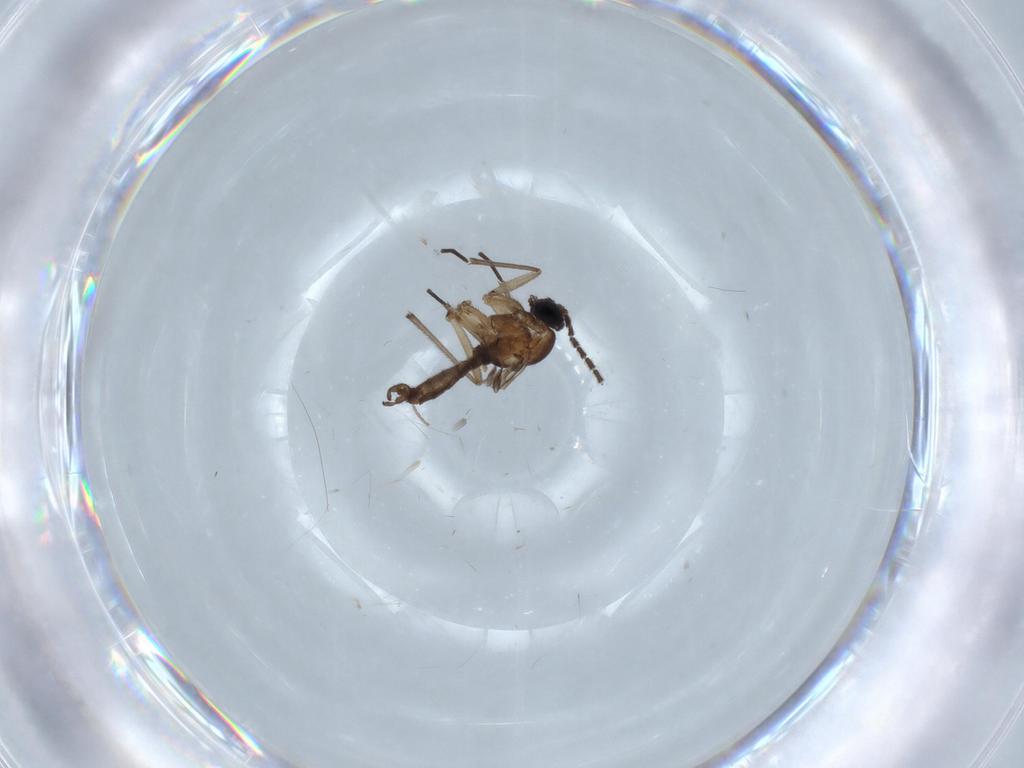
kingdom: Animalia
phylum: Arthropoda
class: Insecta
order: Diptera
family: Sciaridae
